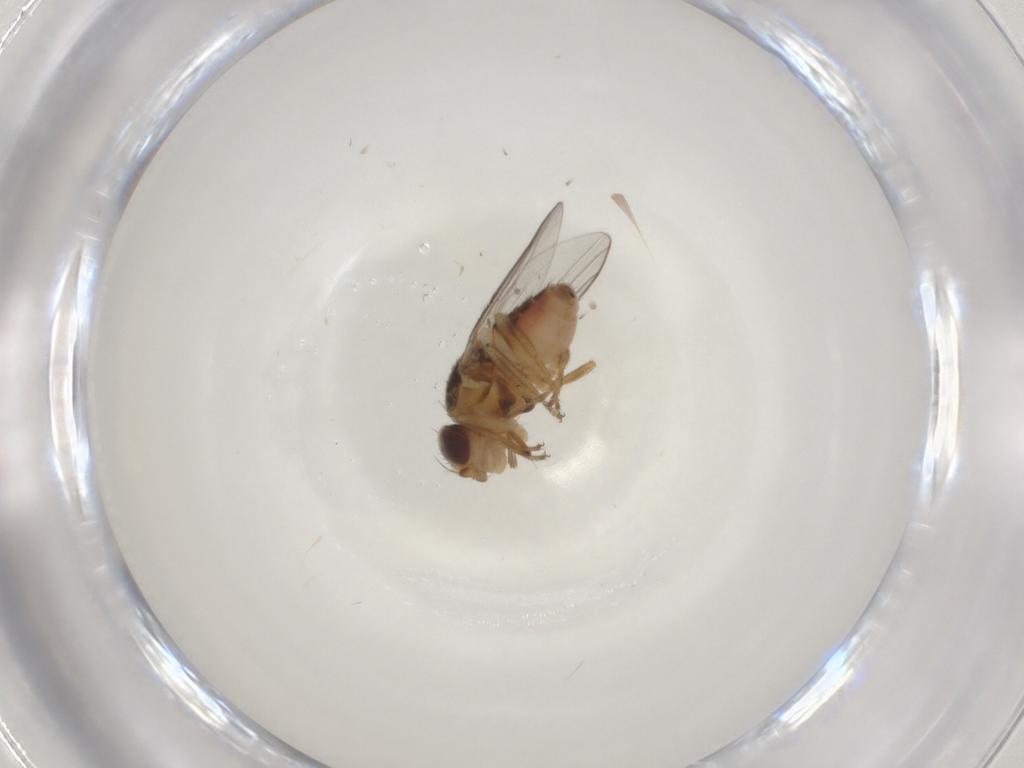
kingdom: Animalia
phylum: Arthropoda
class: Insecta
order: Diptera
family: Chloropidae
